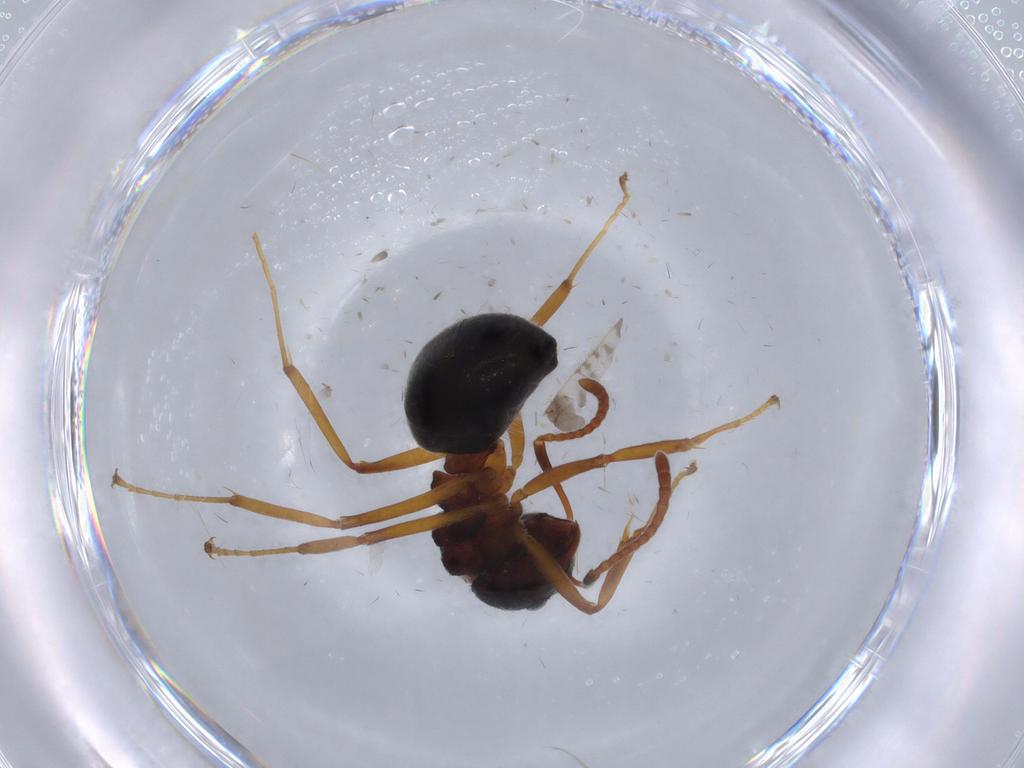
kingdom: Animalia
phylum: Arthropoda
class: Insecta
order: Hymenoptera
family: Formicidae
